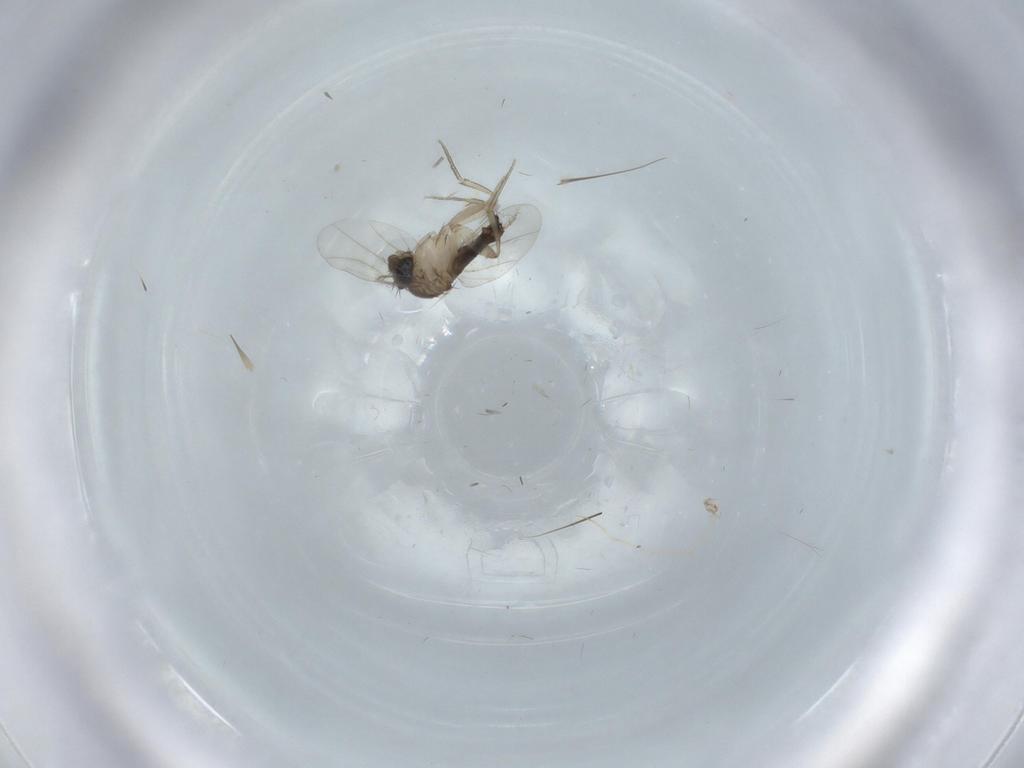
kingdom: Animalia
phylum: Arthropoda
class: Insecta
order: Diptera
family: Phoridae
